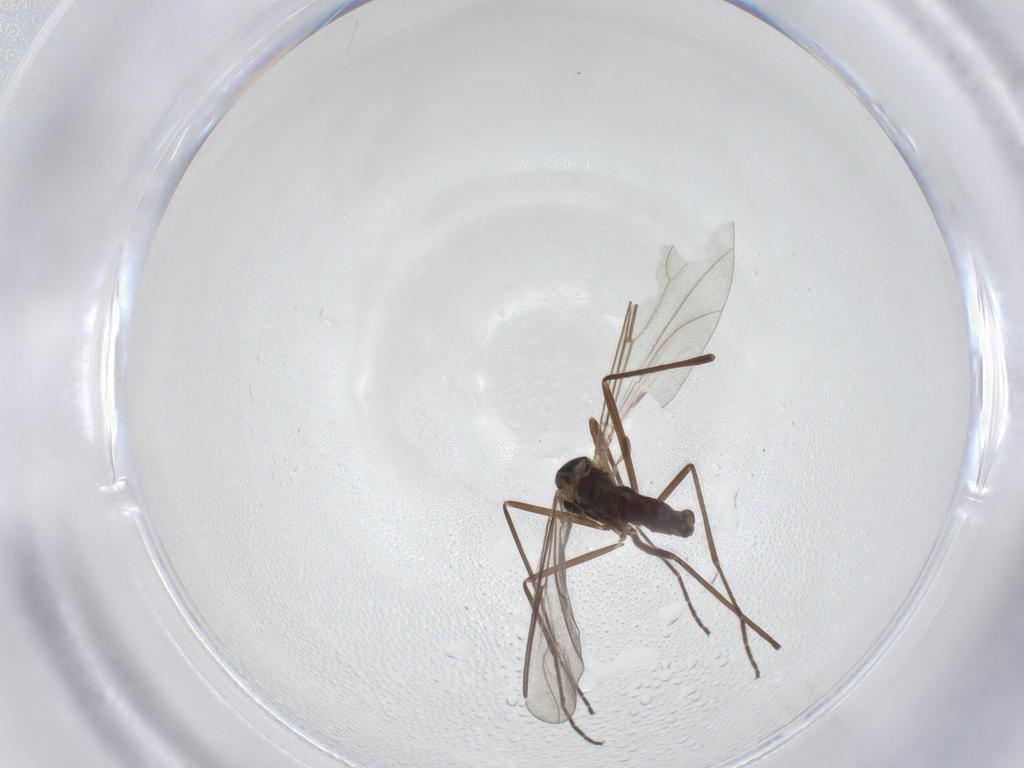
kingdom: Animalia
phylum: Arthropoda
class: Insecta
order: Diptera
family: Cecidomyiidae
